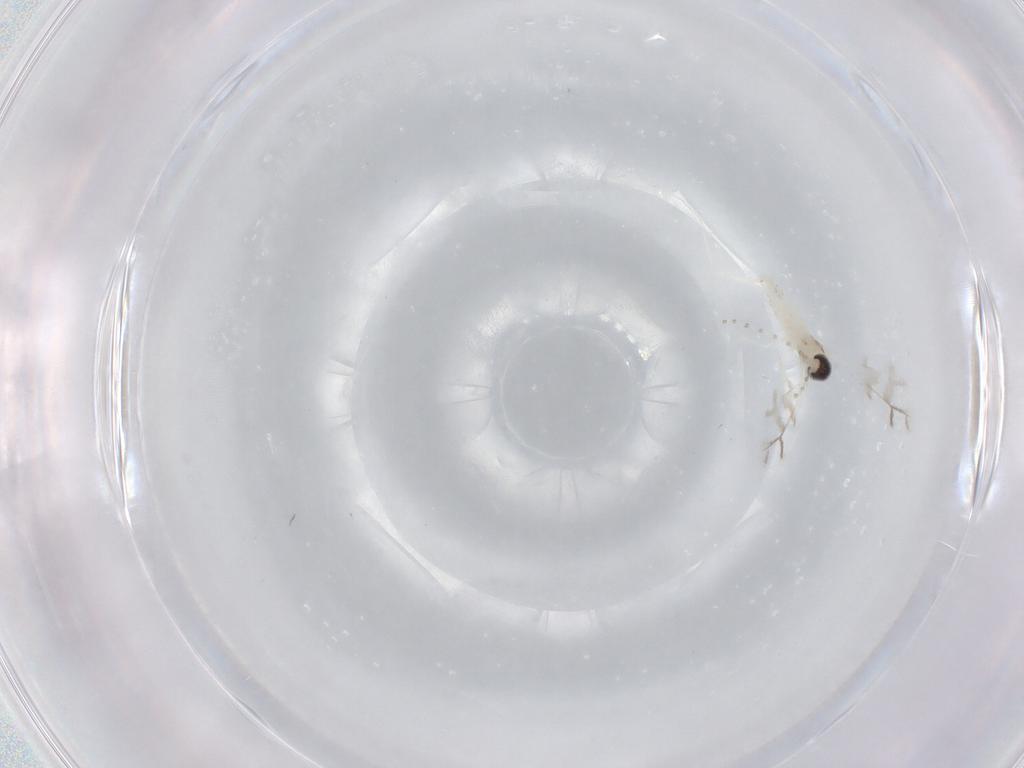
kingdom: Animalia
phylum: Arthropoda
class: Insecta
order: Diptera
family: Cecidomyiidae
